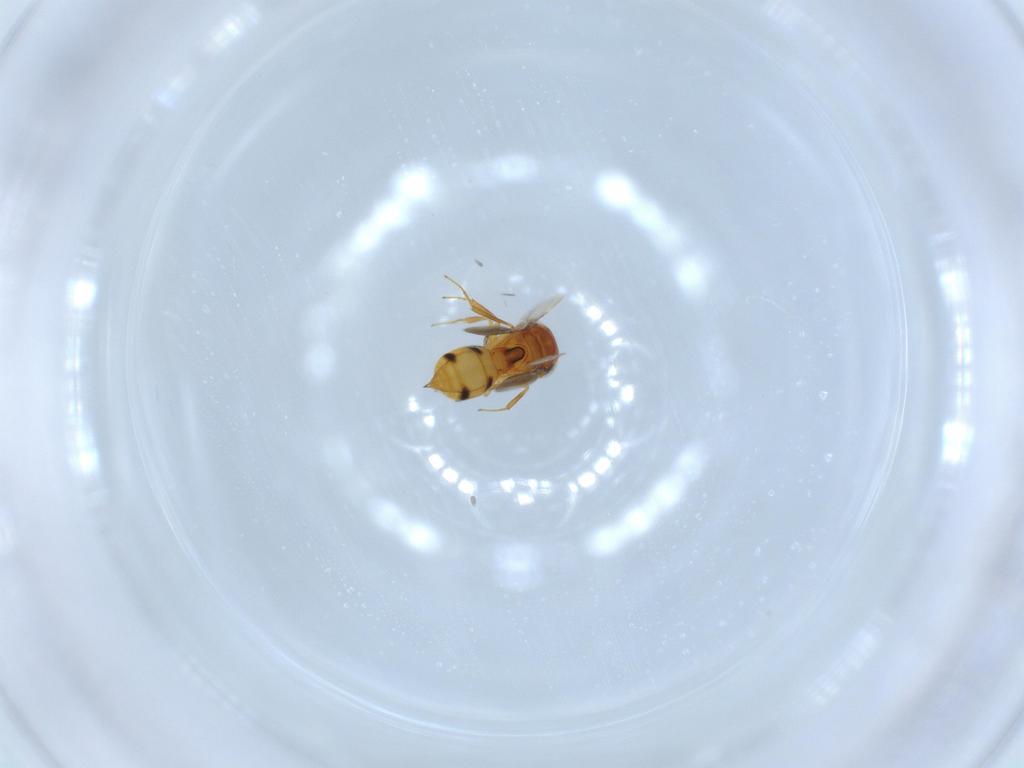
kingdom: Animalia
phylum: Arthropoda
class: Insecta
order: Hymenoptera
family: Scelionidae
